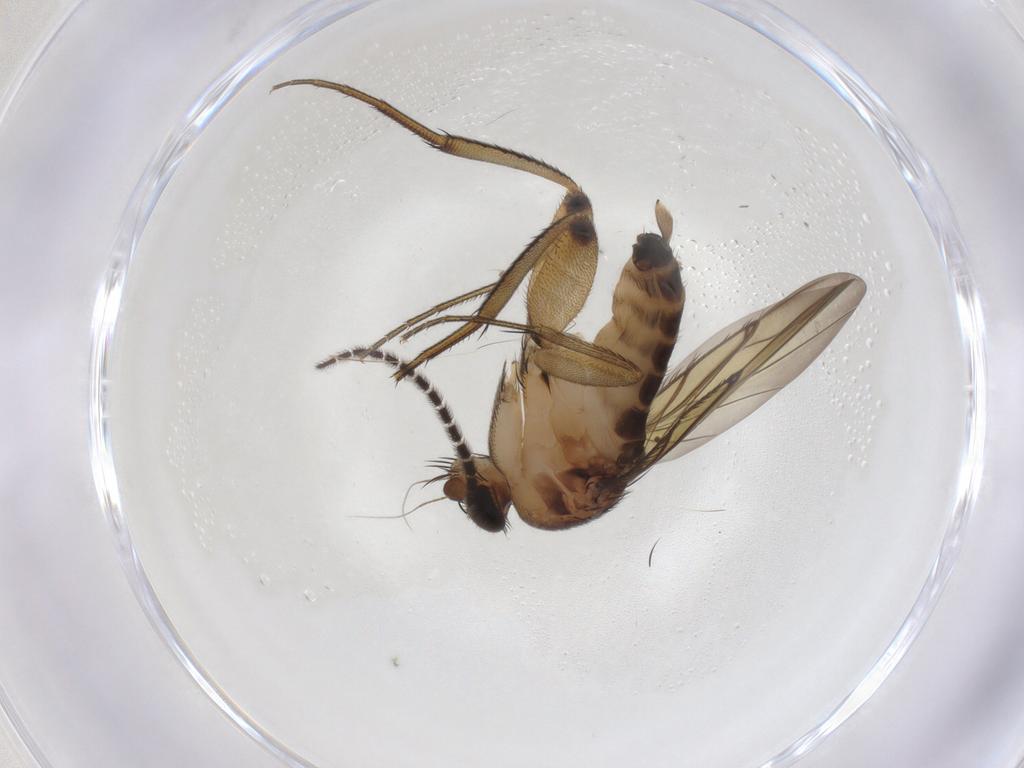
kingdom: Animalia
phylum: Arthropoda
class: Insecta
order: Diptera
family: Phoridae
